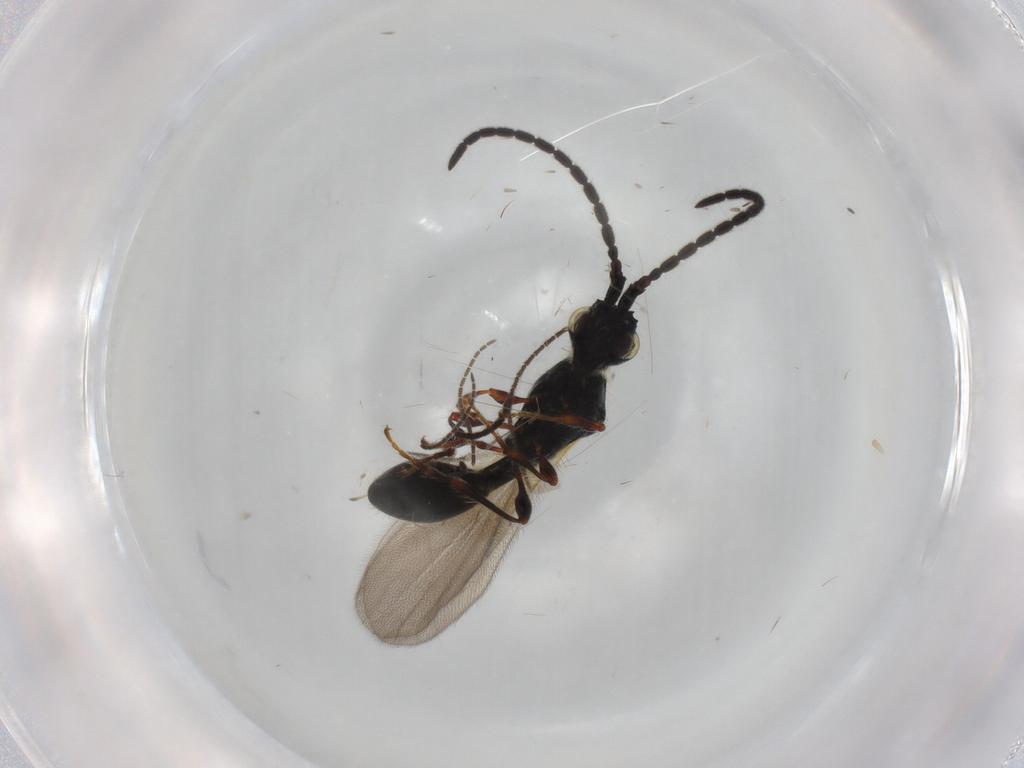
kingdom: Animalia
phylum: Arthropoda
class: Insecta
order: Hymenoptera
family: Diapriidae
